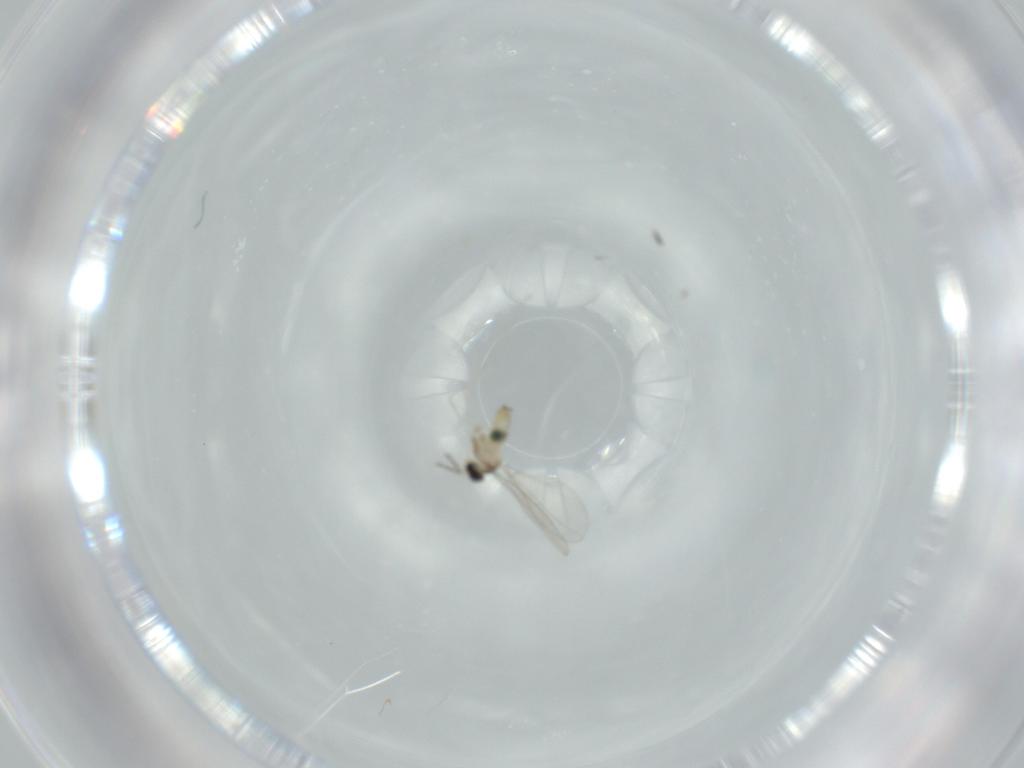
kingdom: Animalia
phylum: Arthropoda
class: Insecta
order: Diptera
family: Cecidomyiidae
